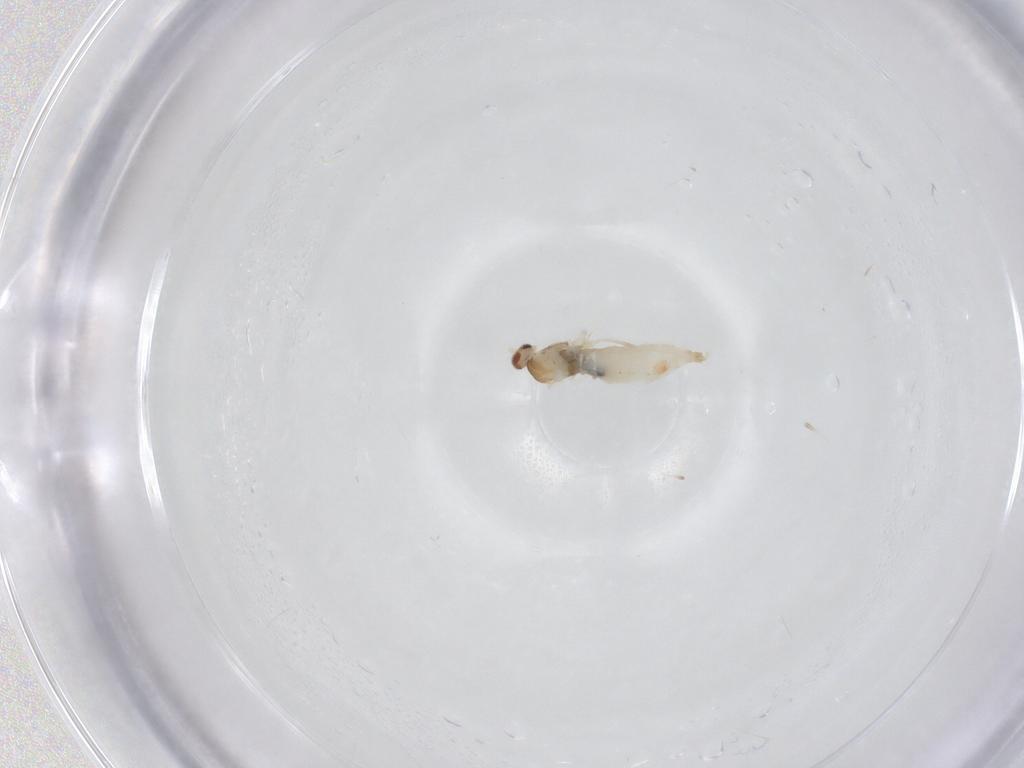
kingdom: Animalia
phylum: Arthropoda
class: Insecta
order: Diptera
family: Cecidomyiidae
